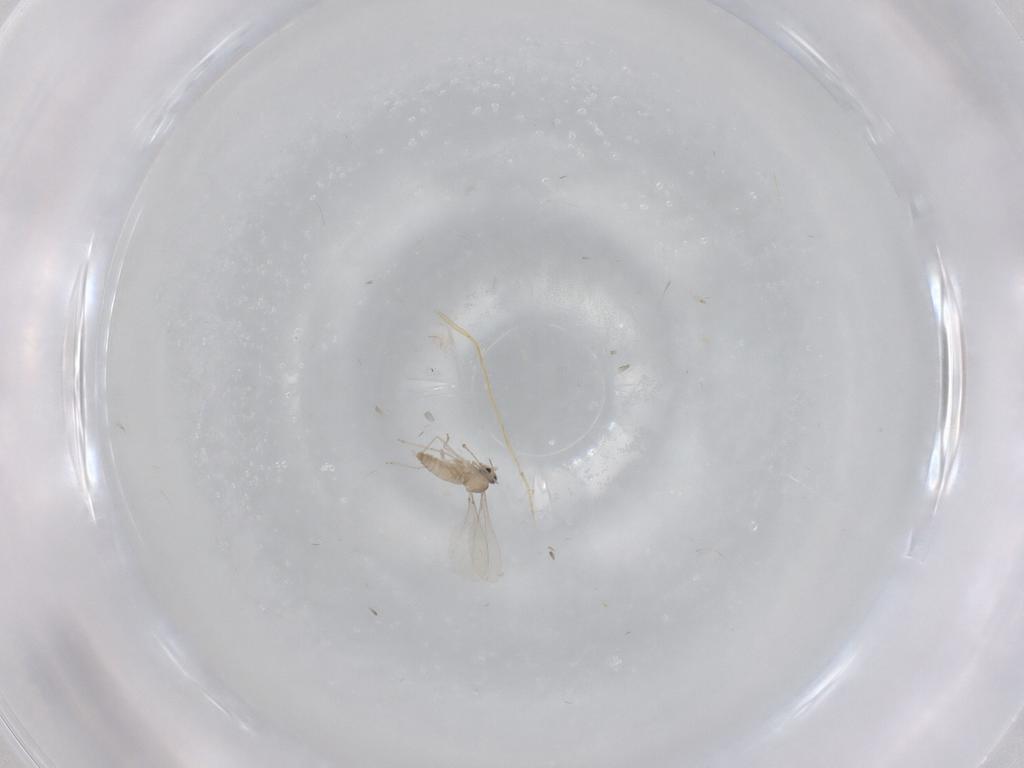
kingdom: Animalia
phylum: Arthropoda
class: Insecta
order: Diptera
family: Cecidomyiidae
